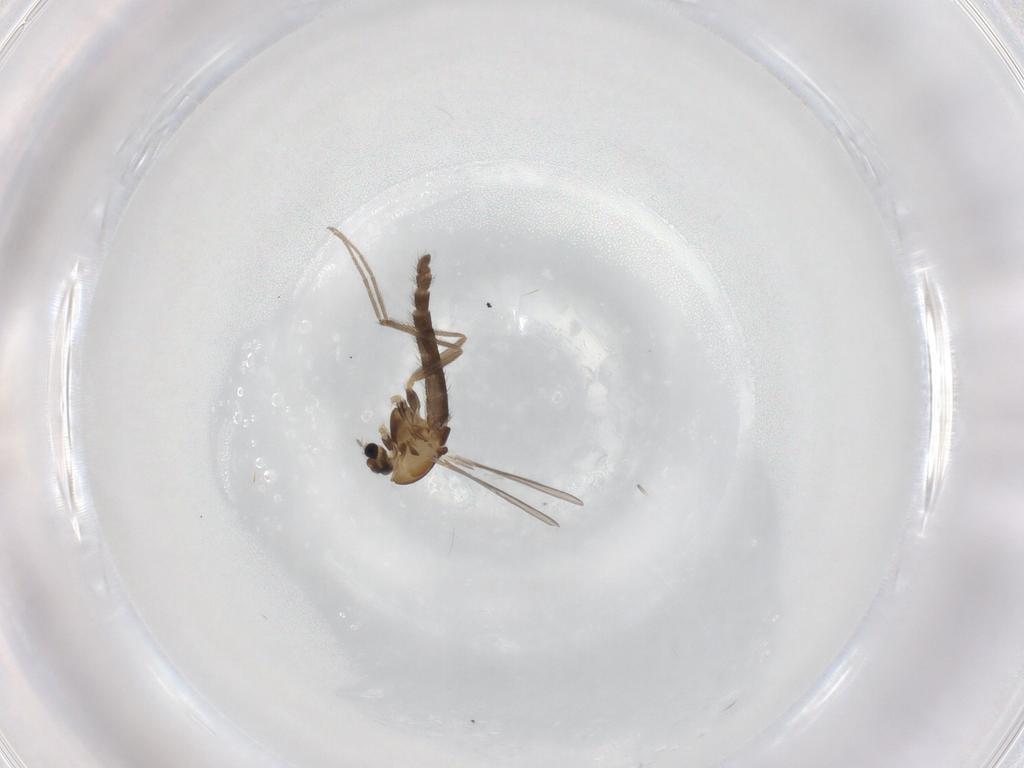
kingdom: Animalia
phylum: Arthropoda
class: Insecta
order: Diptera
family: Chironomidae
